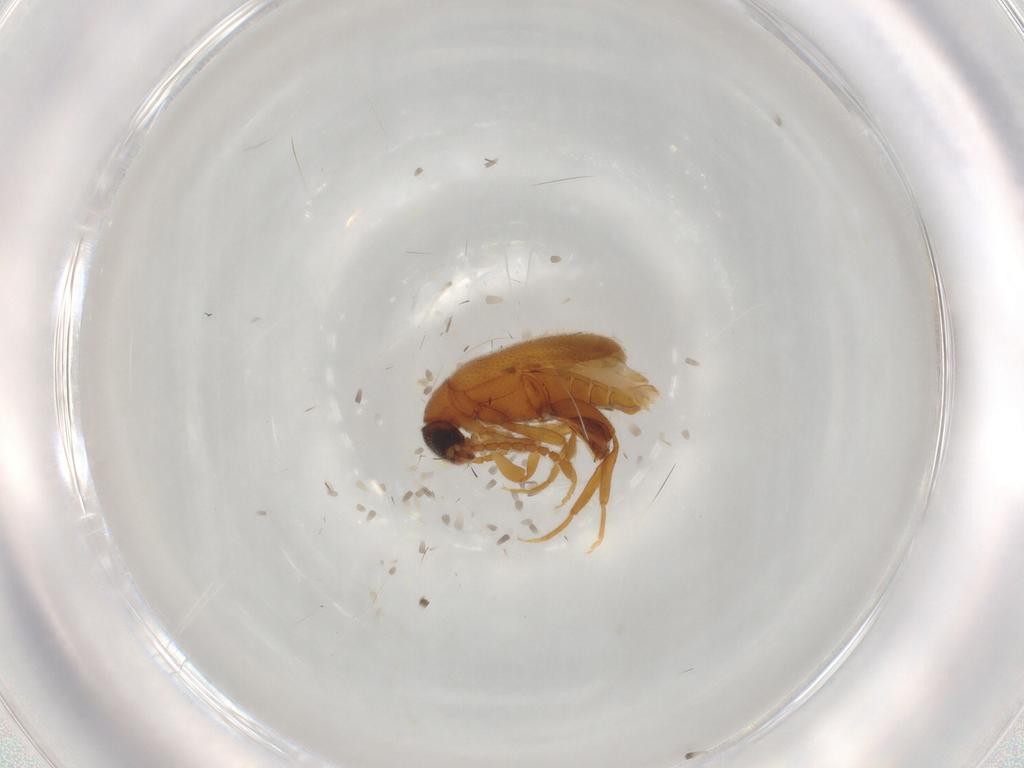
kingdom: Animalia
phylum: Arthropoda
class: Insecta
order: Coleoptera
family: Aderidae
